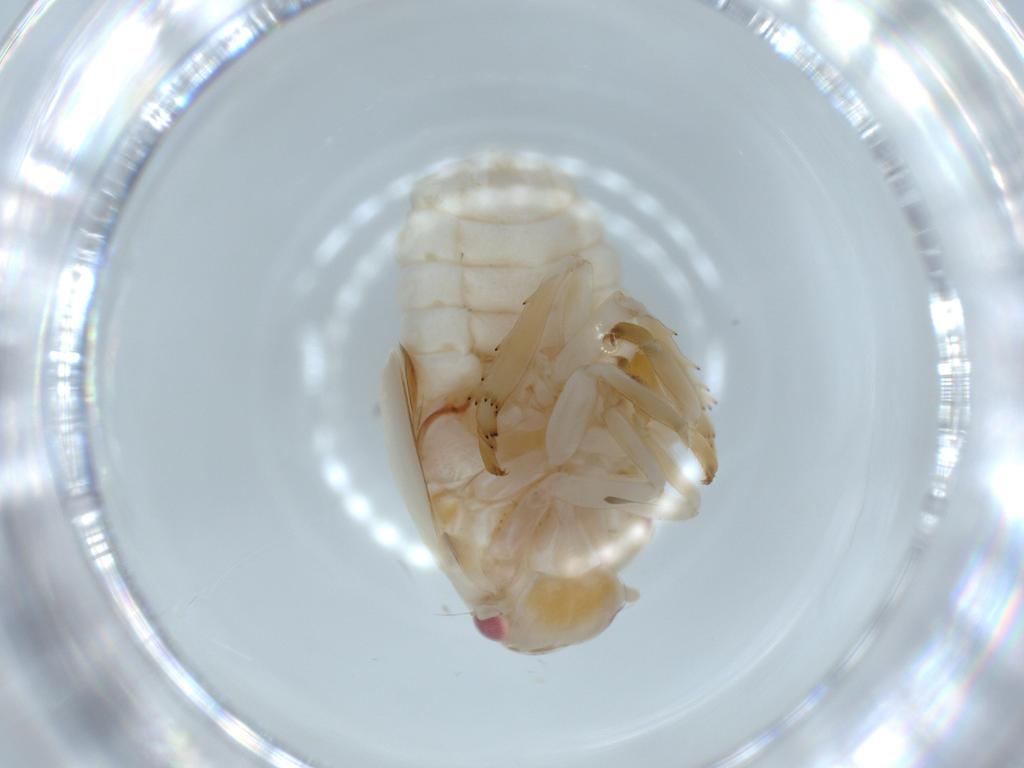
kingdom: Animalia
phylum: Arthropoda
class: Insecta
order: Hemiptera
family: Flatidae
